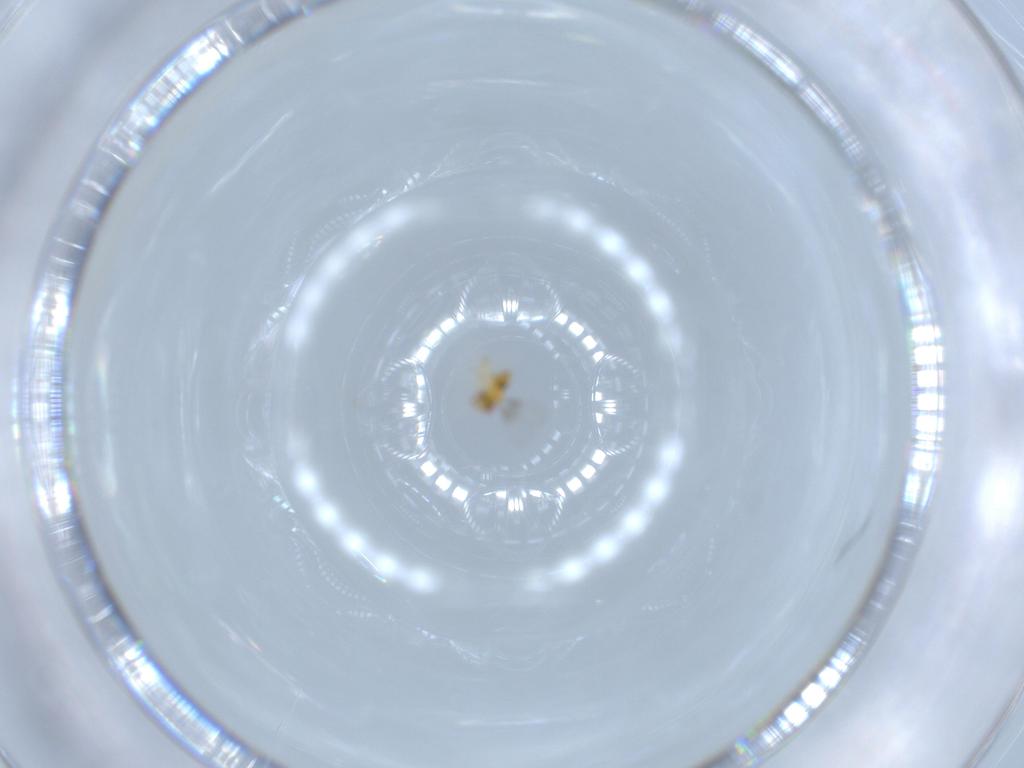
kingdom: Animalia
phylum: Arthropoda
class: Insecta
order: Hymenoptera
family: Trichogrammatidae
